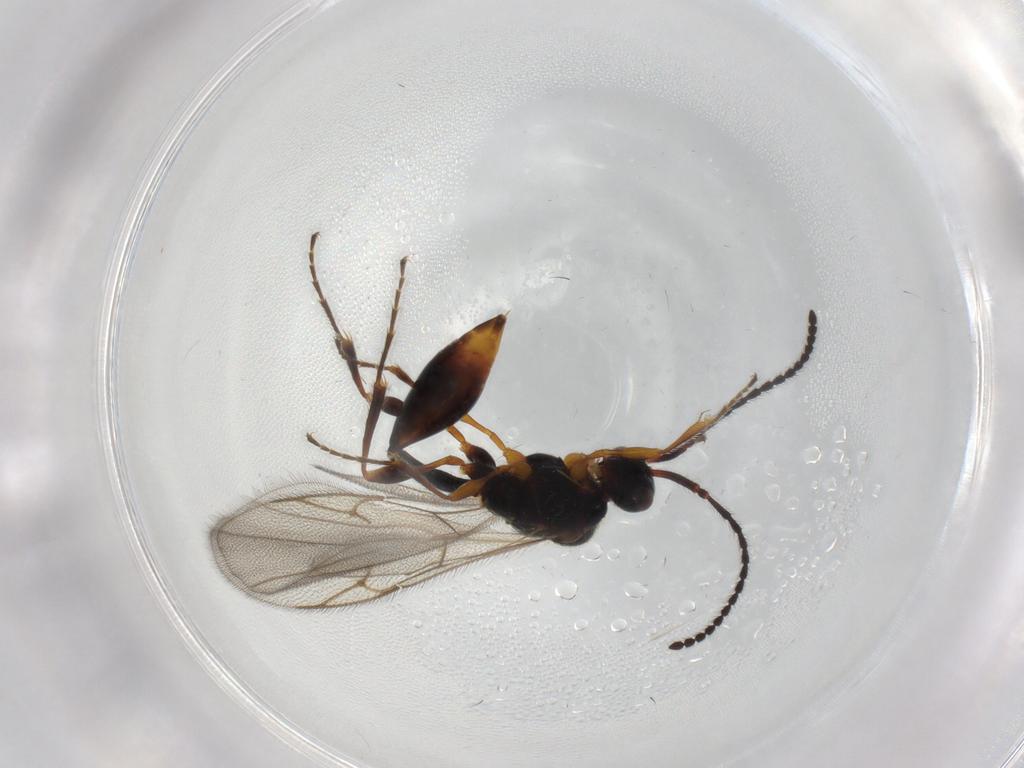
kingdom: Animalia
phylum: Arthropoda
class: Insecta
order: Hymenoptera
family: Diapriidae
